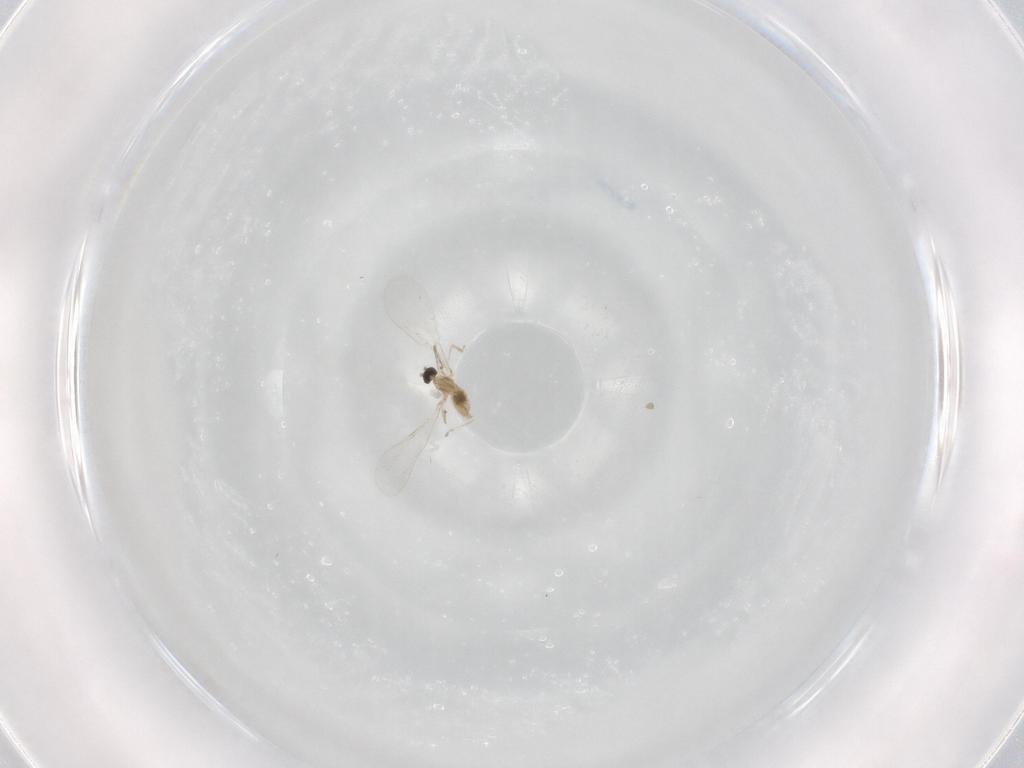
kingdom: Animalia
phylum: Arthropoda
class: Insecta
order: Diptera
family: Cecidomyiidae
